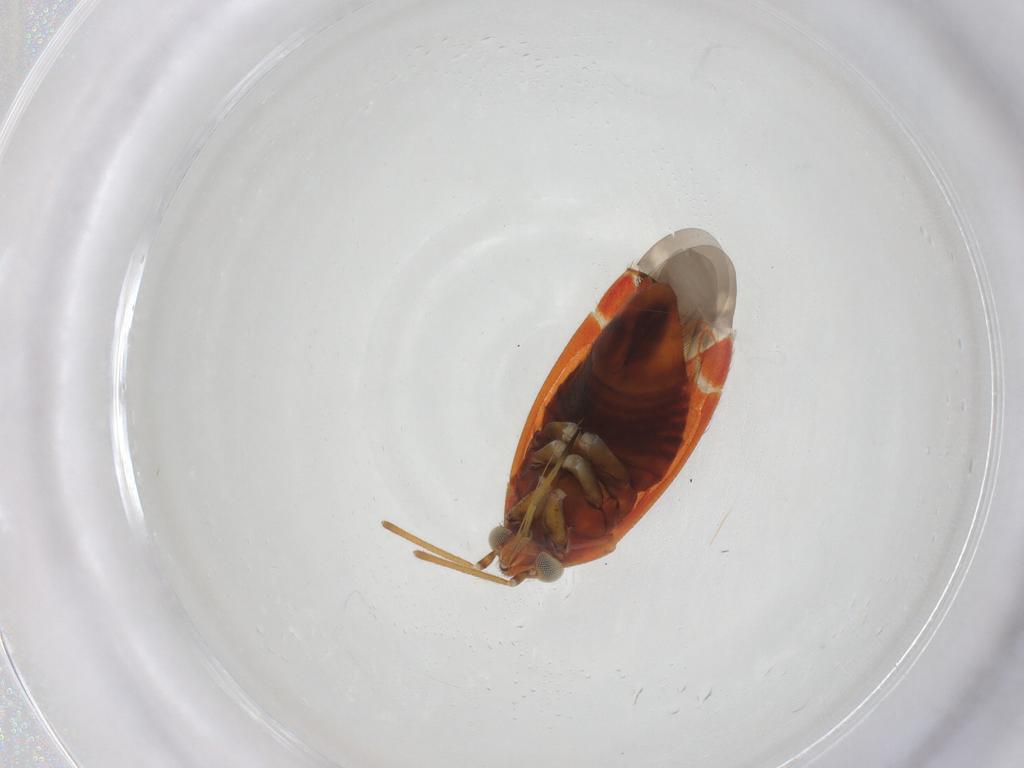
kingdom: Animalia
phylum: Arthropoda
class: Insecta
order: Hemiptera
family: Miridae
